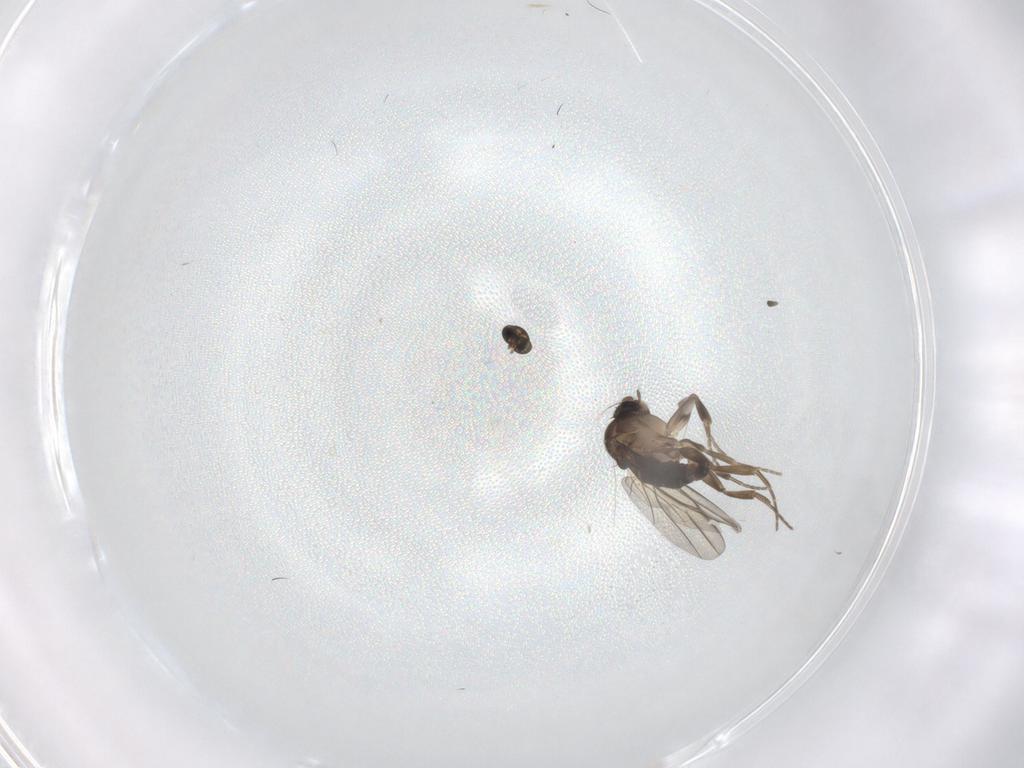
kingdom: Animalia
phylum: Arthropoda
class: Insecta
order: Diptera
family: Phoridae
